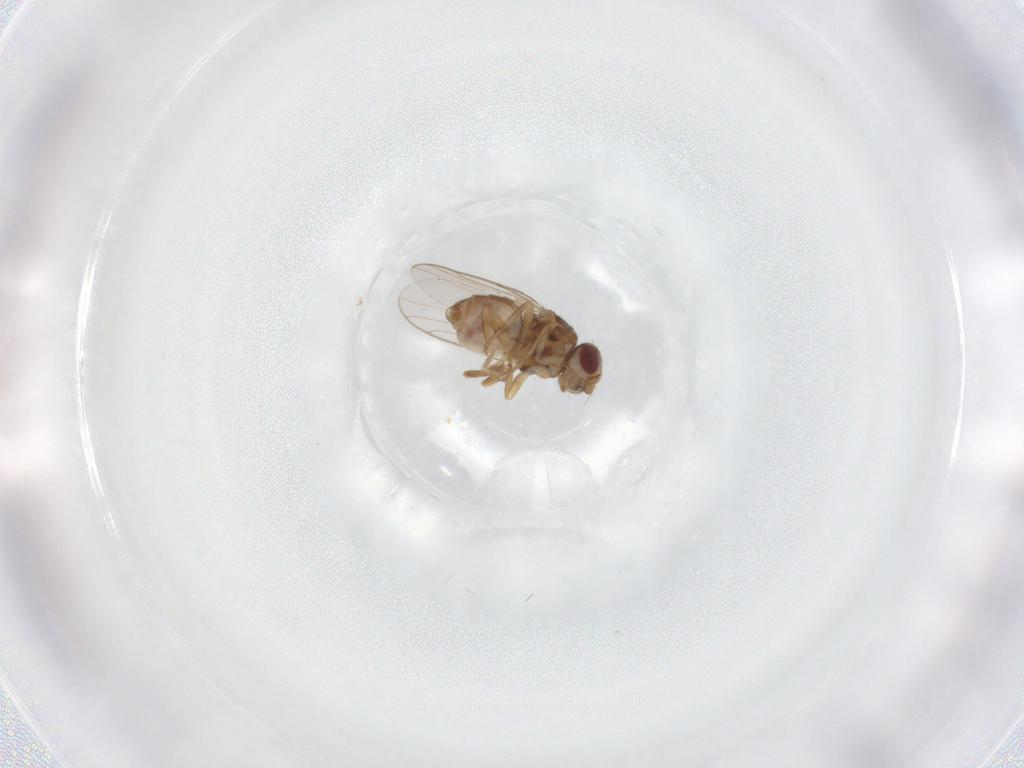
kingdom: Animalia
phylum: Arthropoda
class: Insecta
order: Diptera
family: Chloropidae
